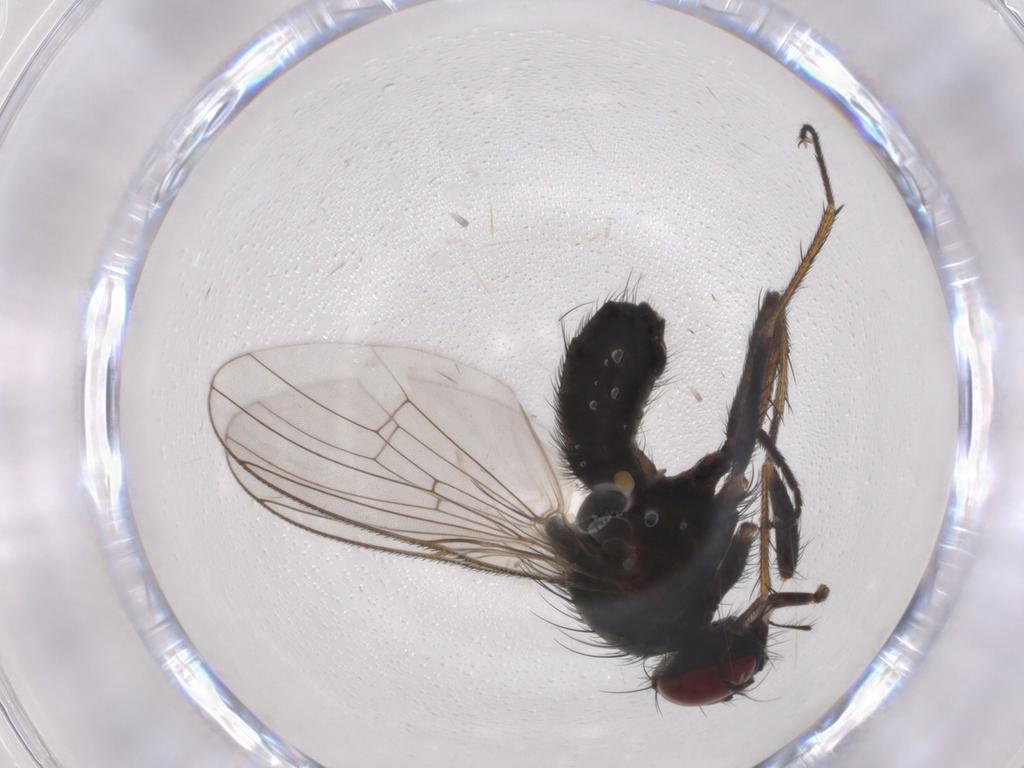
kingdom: Animalia
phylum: Arthropoda
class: Insecta
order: Diptera
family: Muscidae
